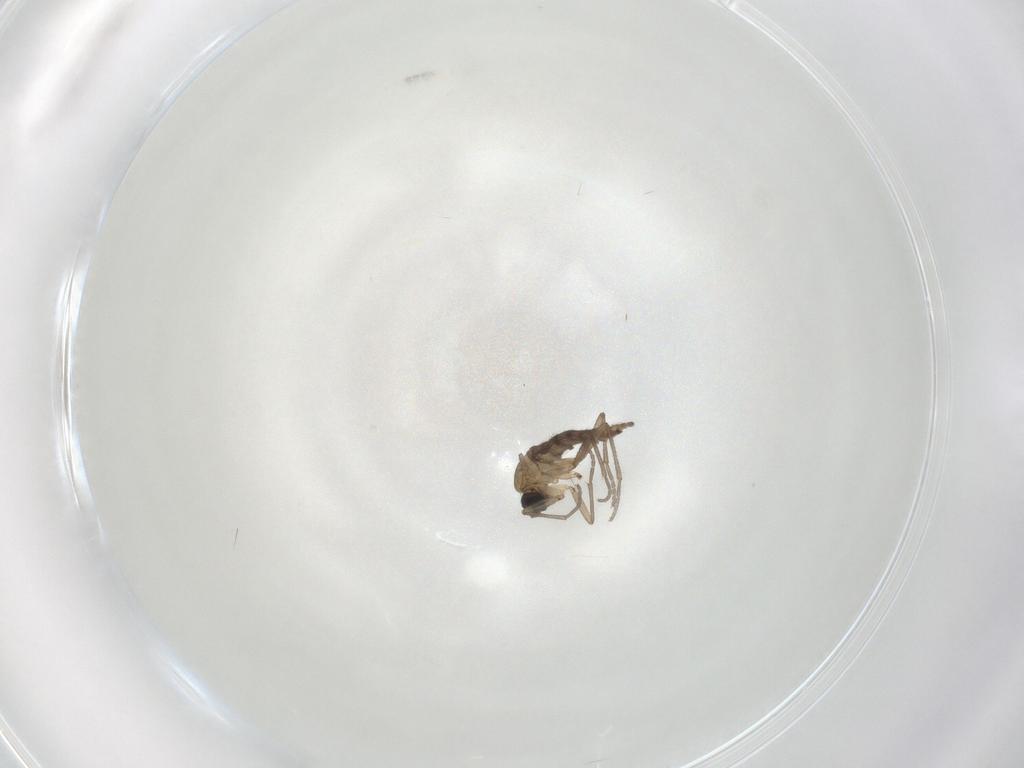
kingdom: Animalia
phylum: Arthropoda
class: Insecta
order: Diptera
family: Sciaridae
